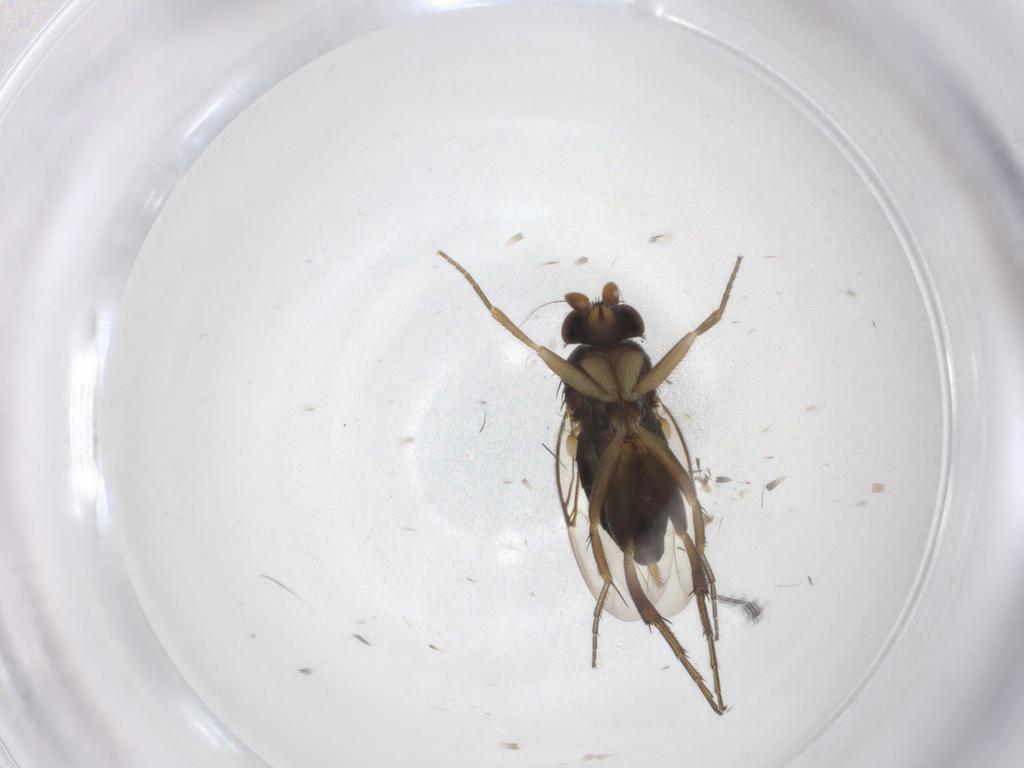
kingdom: Animalia
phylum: Arthropoda
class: Insecta
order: Diptera
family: Phoridae
